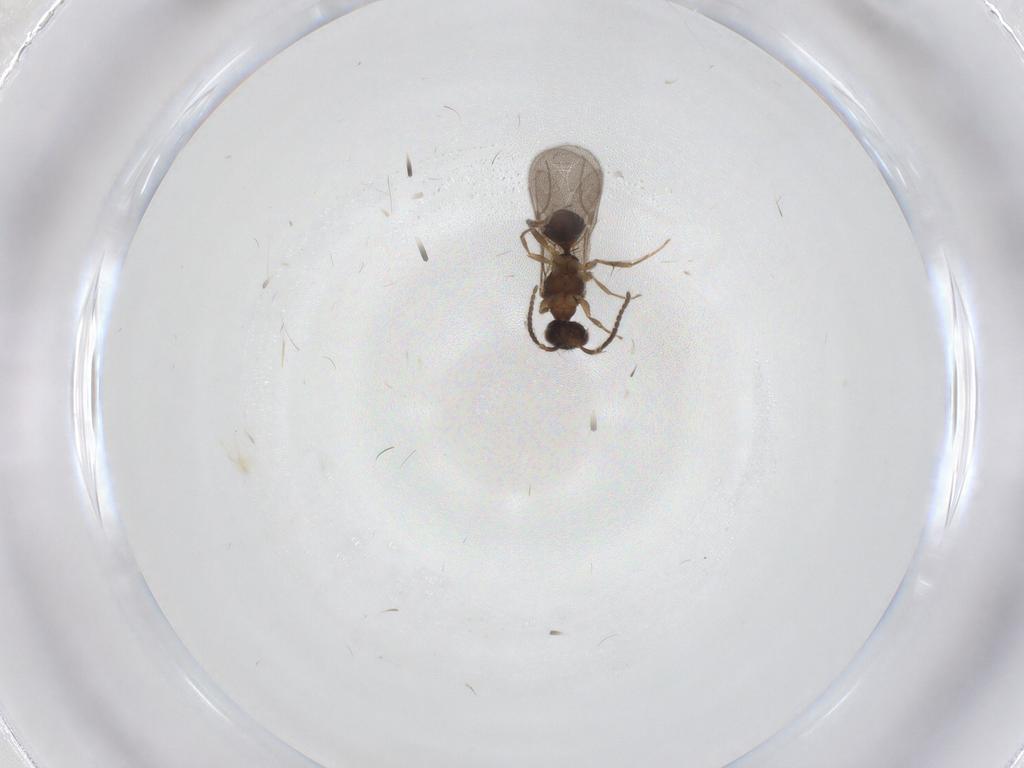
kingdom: Animalia
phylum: Arthropoda
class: Insecta
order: Hymenoptera
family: Bethylidae
